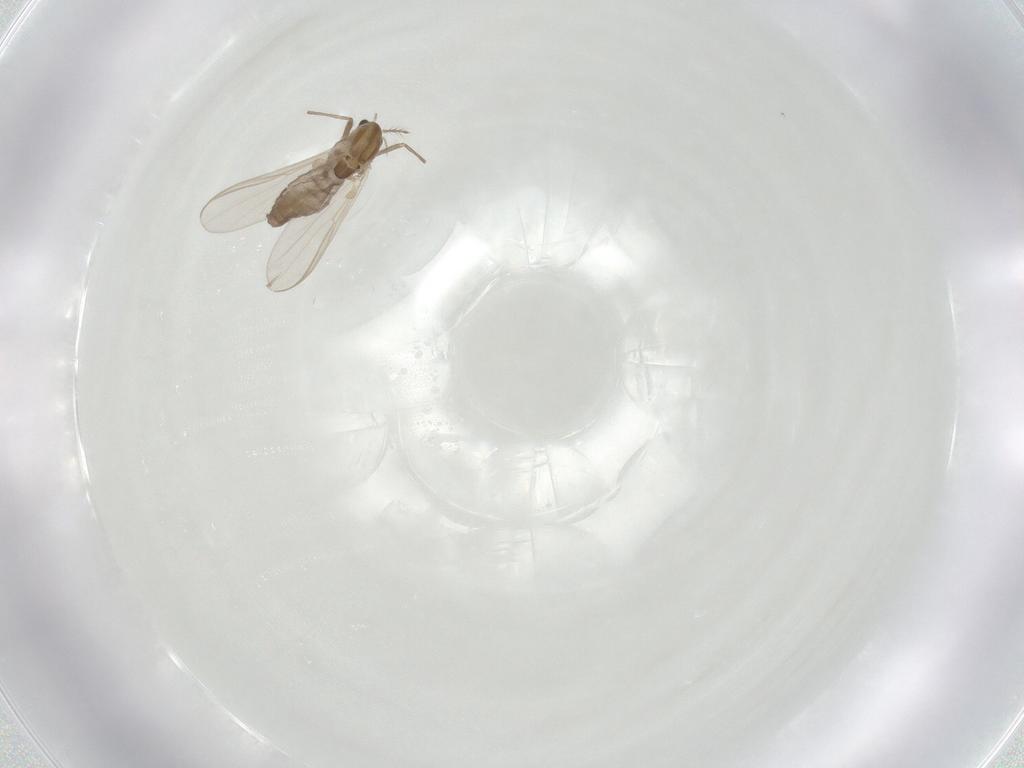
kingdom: Animalia
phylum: Arthropoda
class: Insecta
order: Diptera
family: Chironomidae
